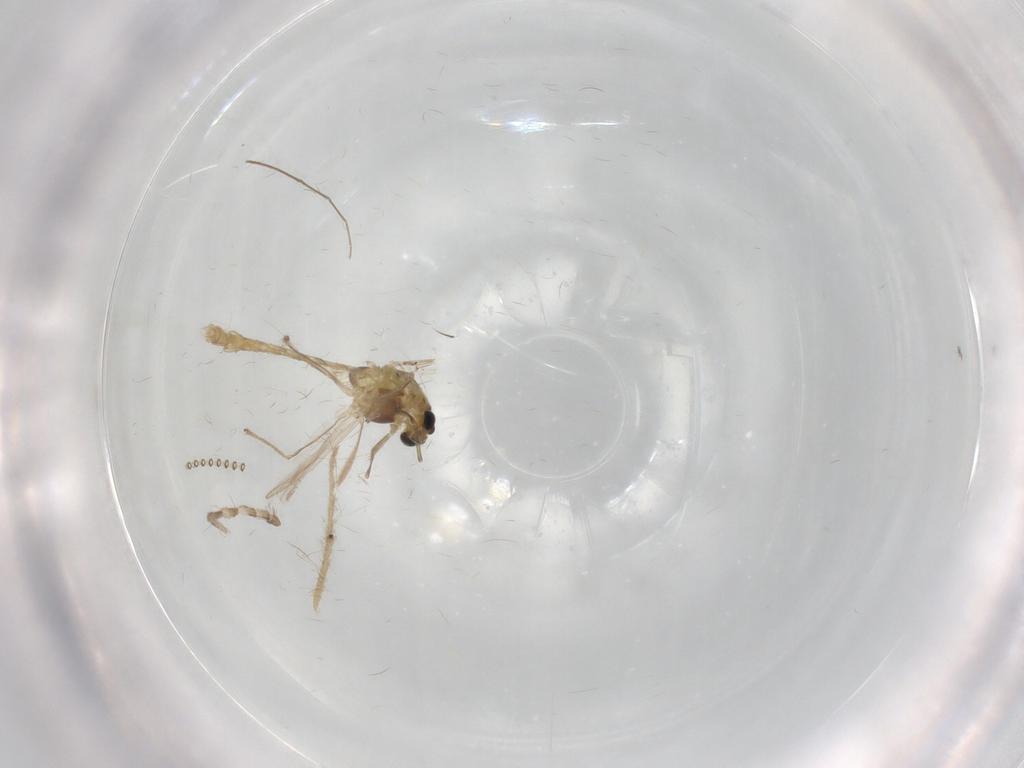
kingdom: Animalia
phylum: Arthropoda
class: Insecta
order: Diptera
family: Chironomidae
